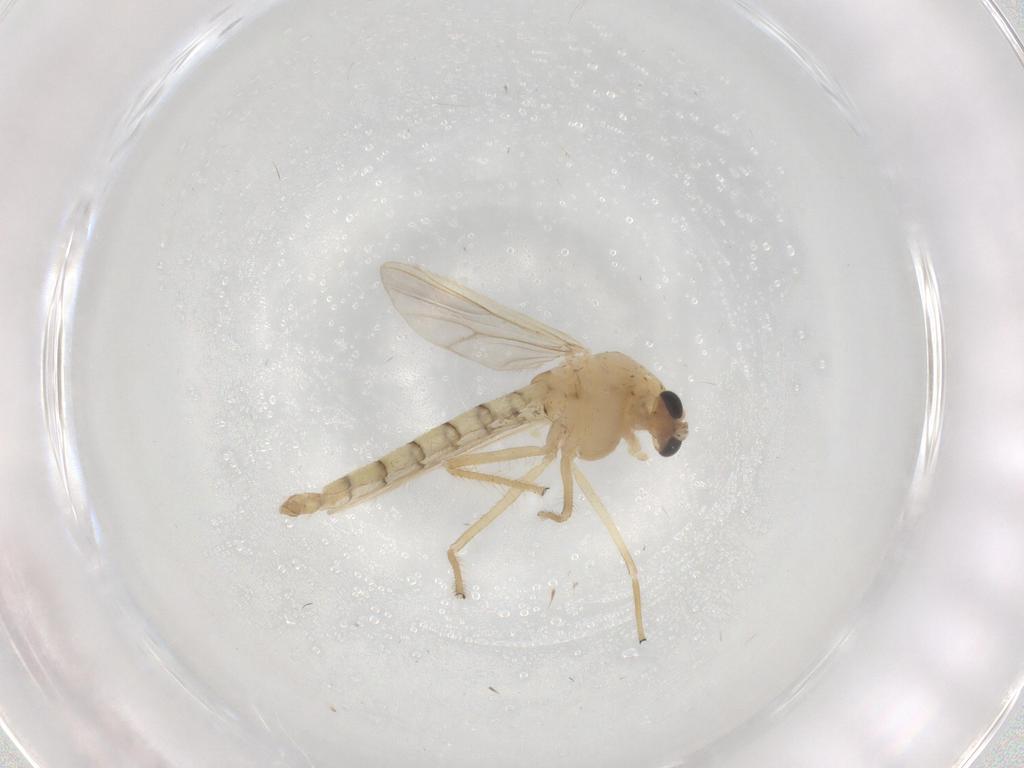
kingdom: Animalia
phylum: Arthropoda
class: Insecta
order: Diptera
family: Chironomidae
